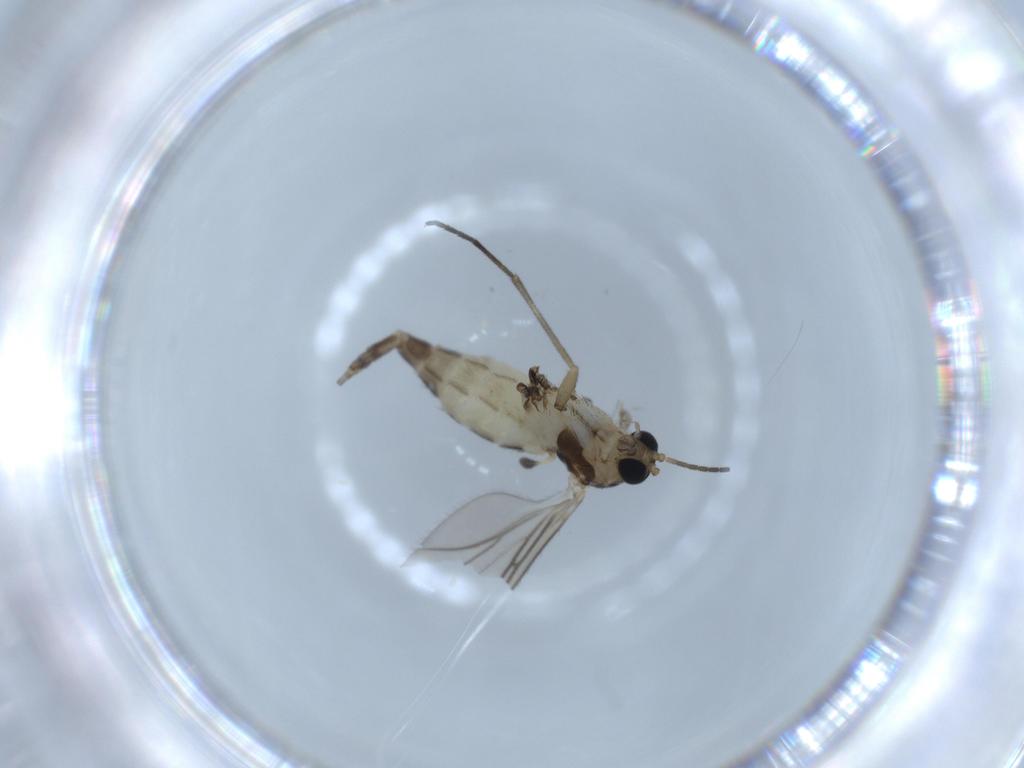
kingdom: Animalia
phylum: Arthropoda
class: Insecta
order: Diptera
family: Sciaridae
